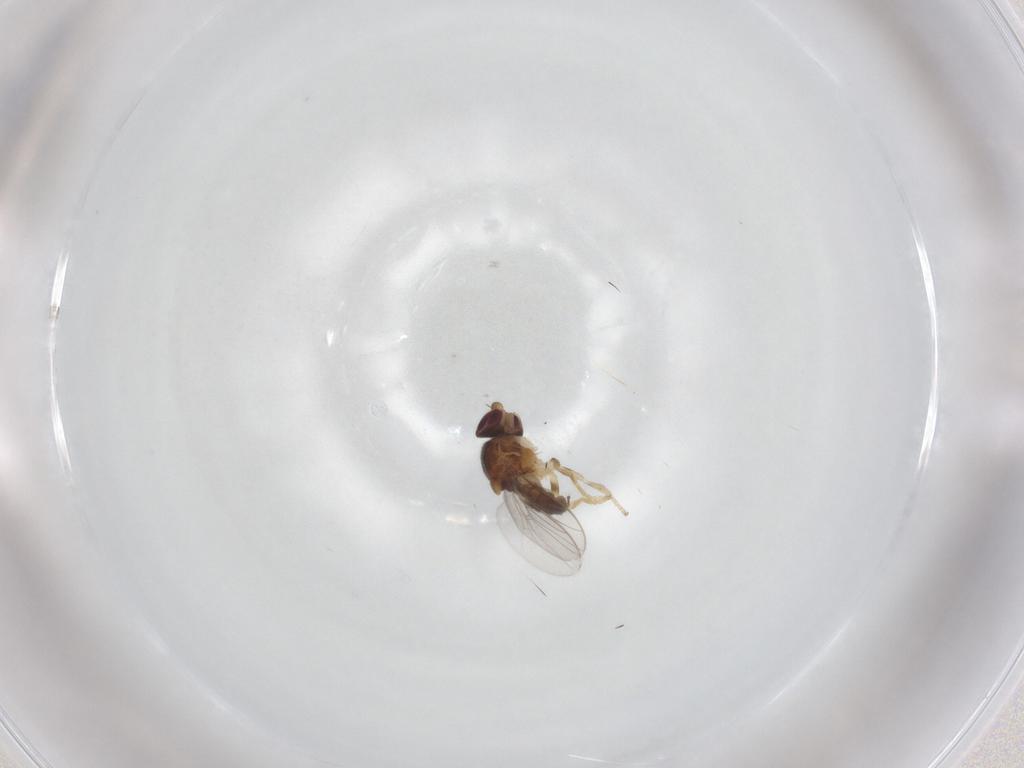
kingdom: Animalia
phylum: Arthropoda
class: Insecta
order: Diptera
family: Chloropidae
